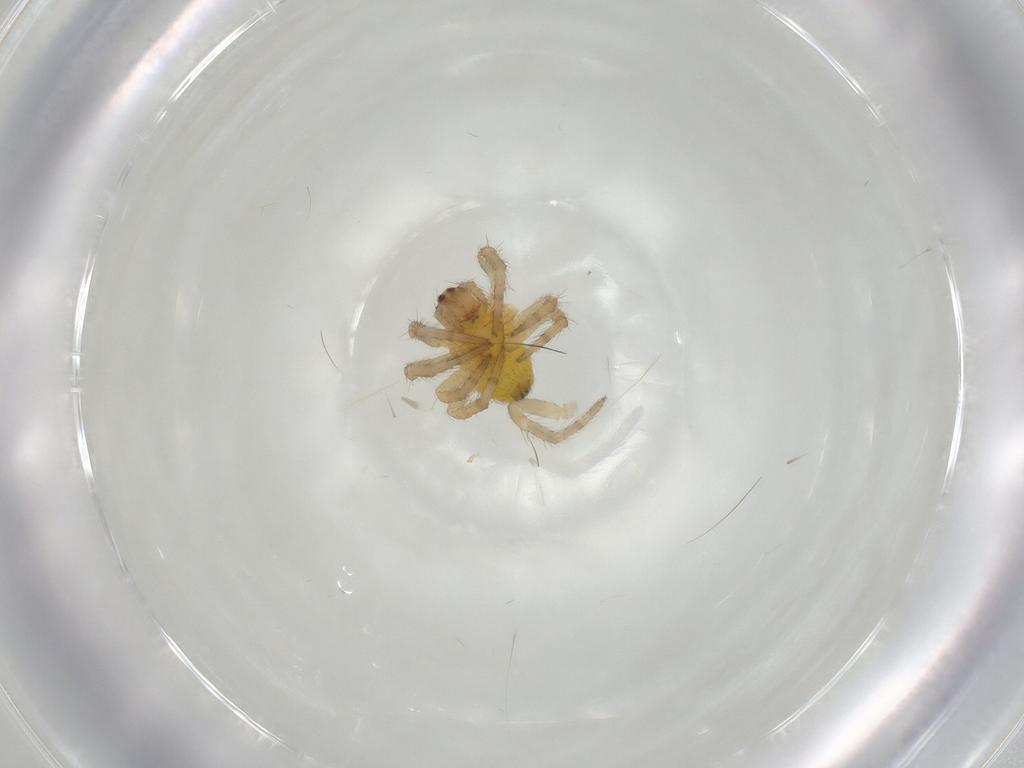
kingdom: Animalia
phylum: Arthropoda
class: Arachnida
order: Araneae
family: Araneidae
